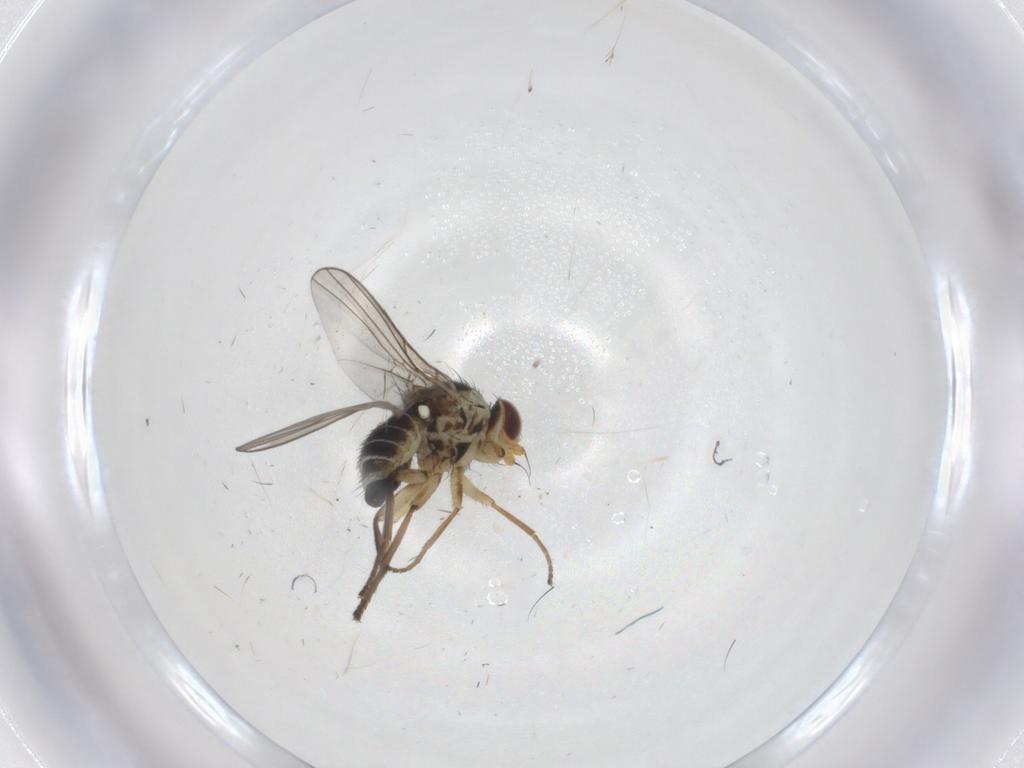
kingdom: Animalia
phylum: Arthropoda
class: Insecta
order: Diptera
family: Agromyzidae
